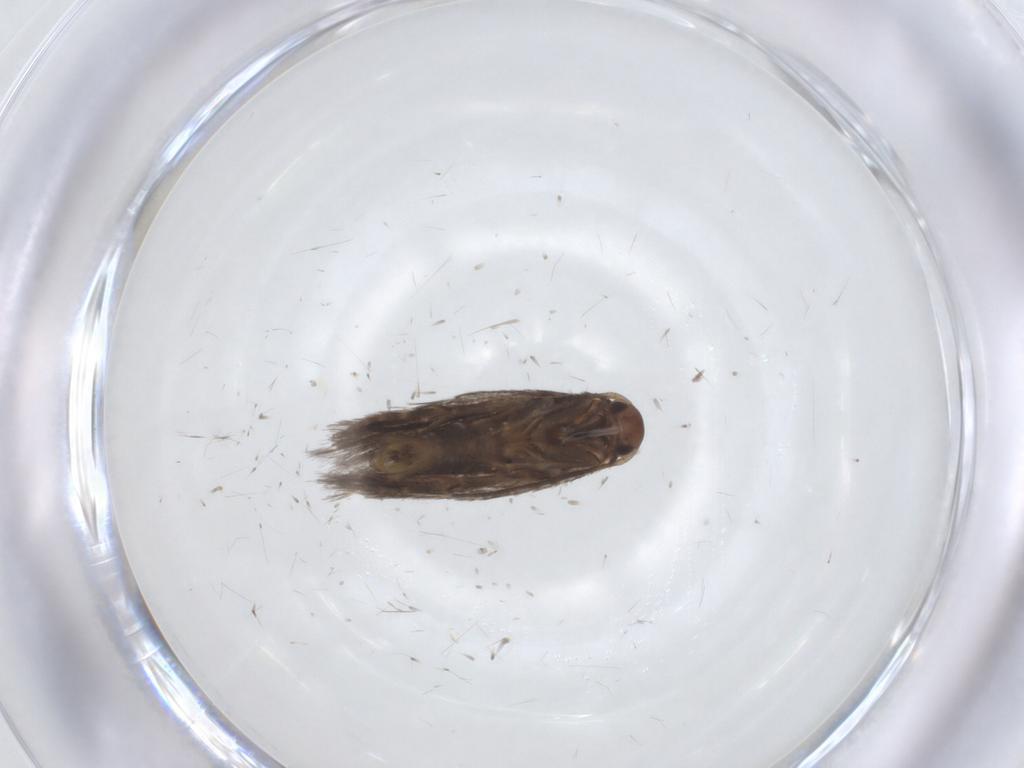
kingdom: Animalia
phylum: Arthropoda
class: Insecta
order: Lepidoptera
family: Elachistidae
